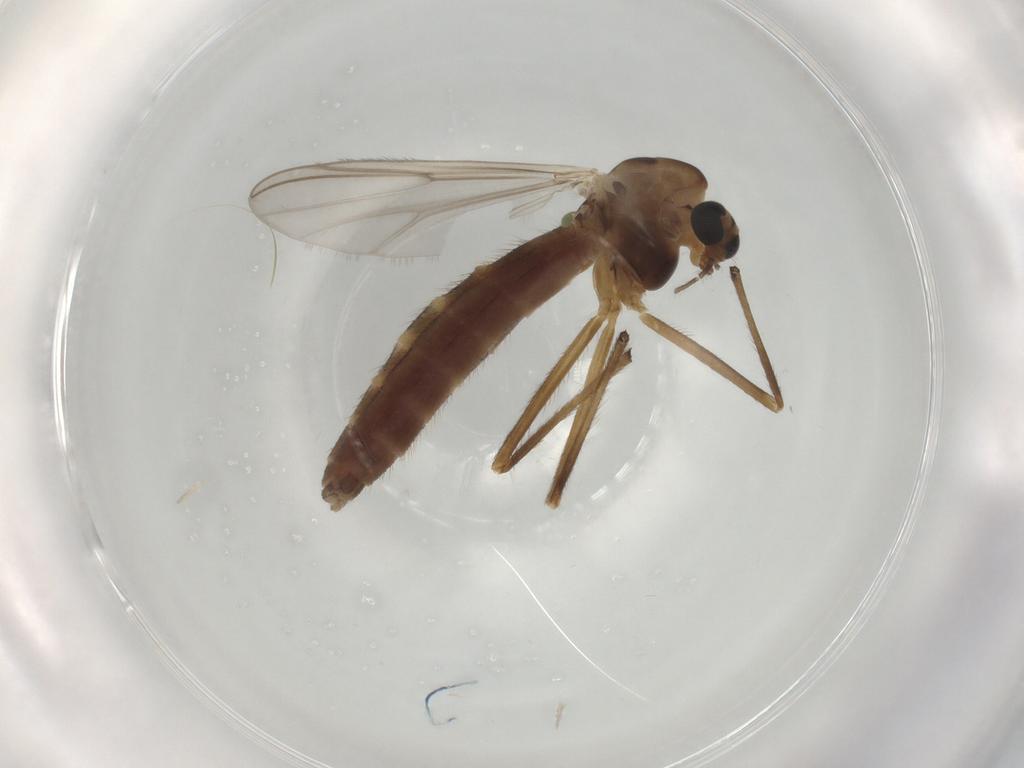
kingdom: Animalia
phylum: Arthropoda
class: Insecta
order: Diptera
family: Chironomidae
